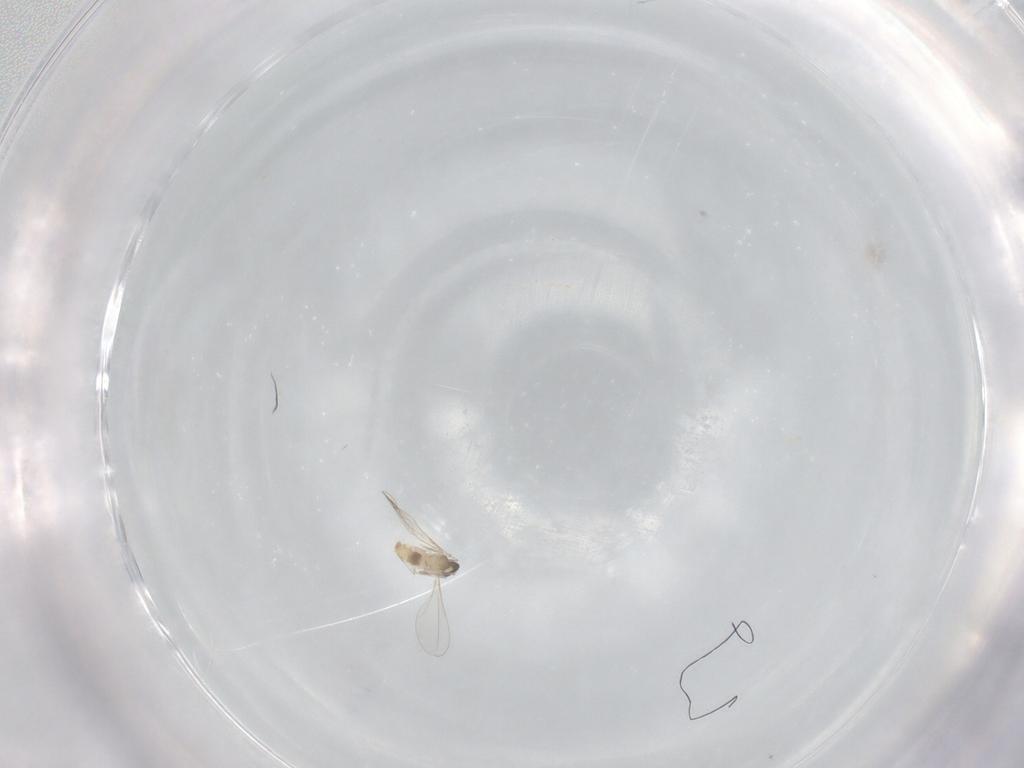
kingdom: Animalia
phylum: Arthropoda
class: Insecta
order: Diptera
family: Cecidomyiidae
